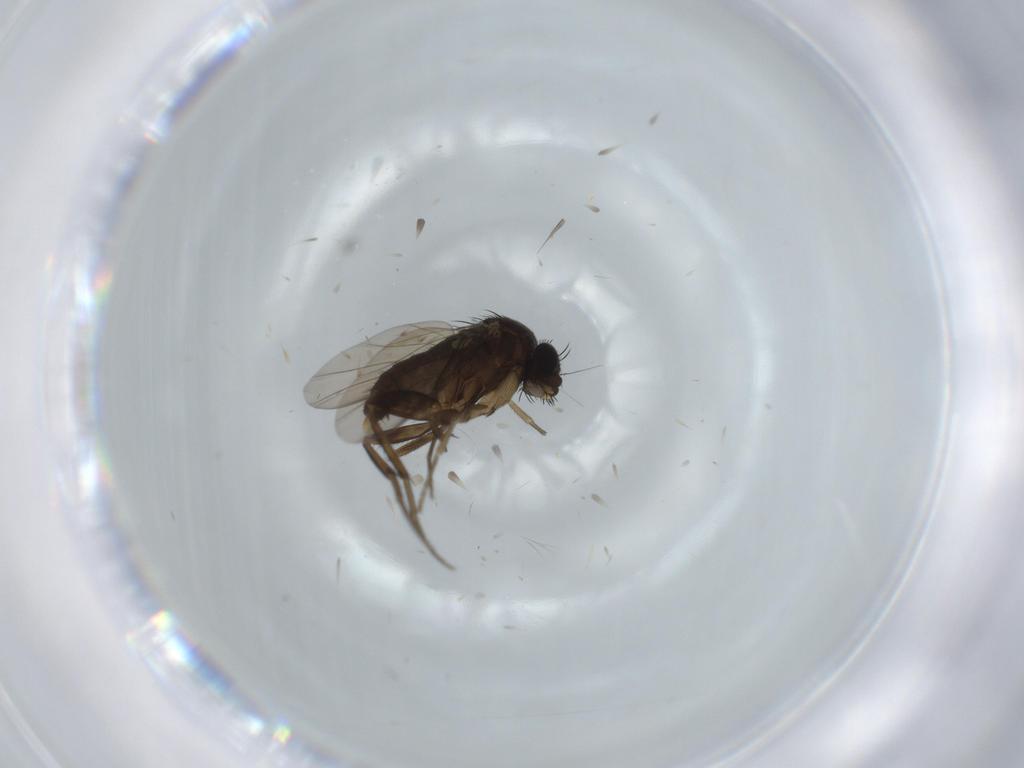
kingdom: Animalia
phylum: Arthropoda
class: Insecta
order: Diptera
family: Phoridae
